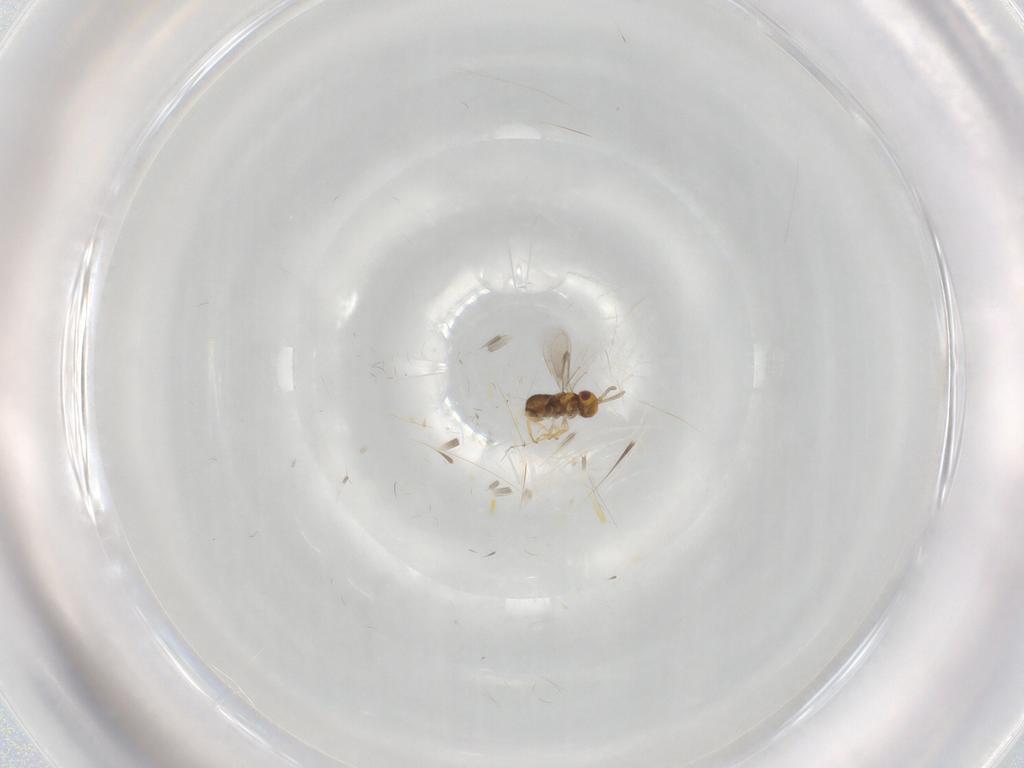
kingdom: Animalia
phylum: Arthropoda
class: Insecta
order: Hymenoptera
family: Aphelinidae
